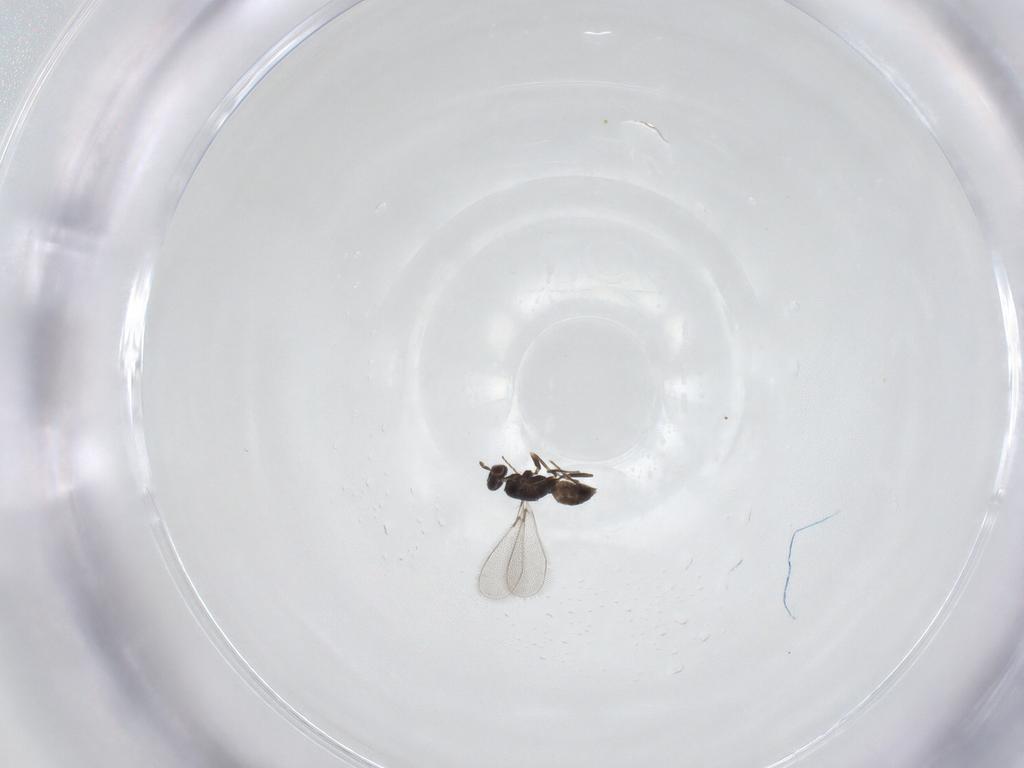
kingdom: Animalia
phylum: Arthropoda
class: Insecta
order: Hymenoptera
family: Mymaridae
